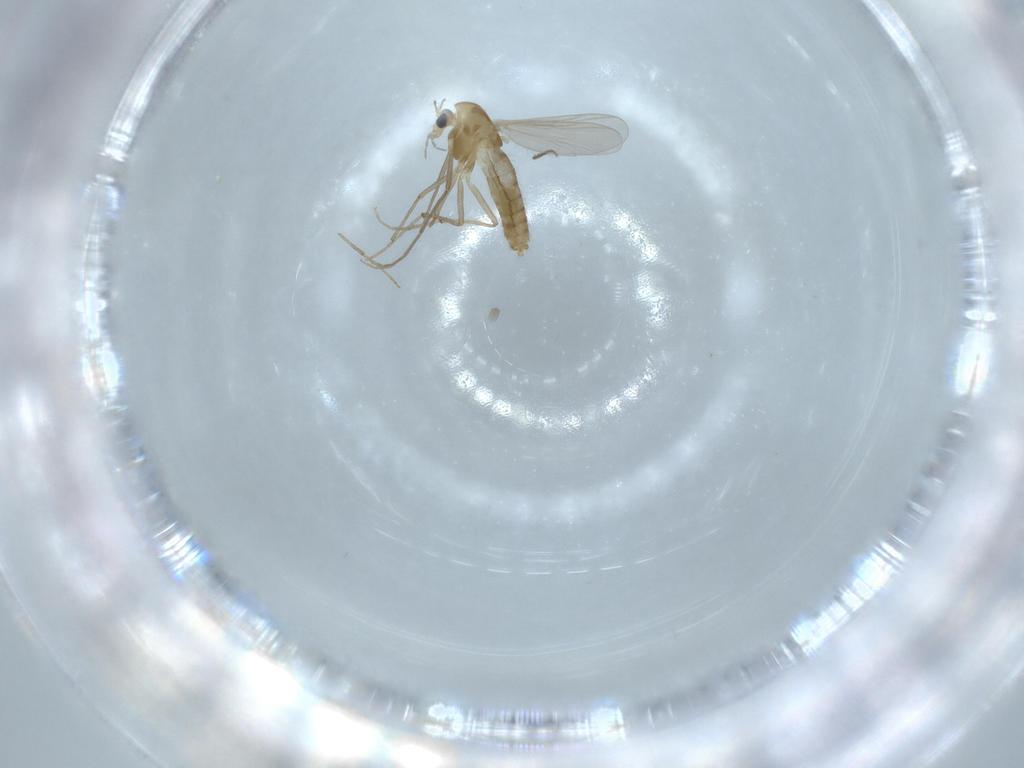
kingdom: Animalia
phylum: Arthropoda
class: Insecta
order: Diptera
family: Chironomidae
